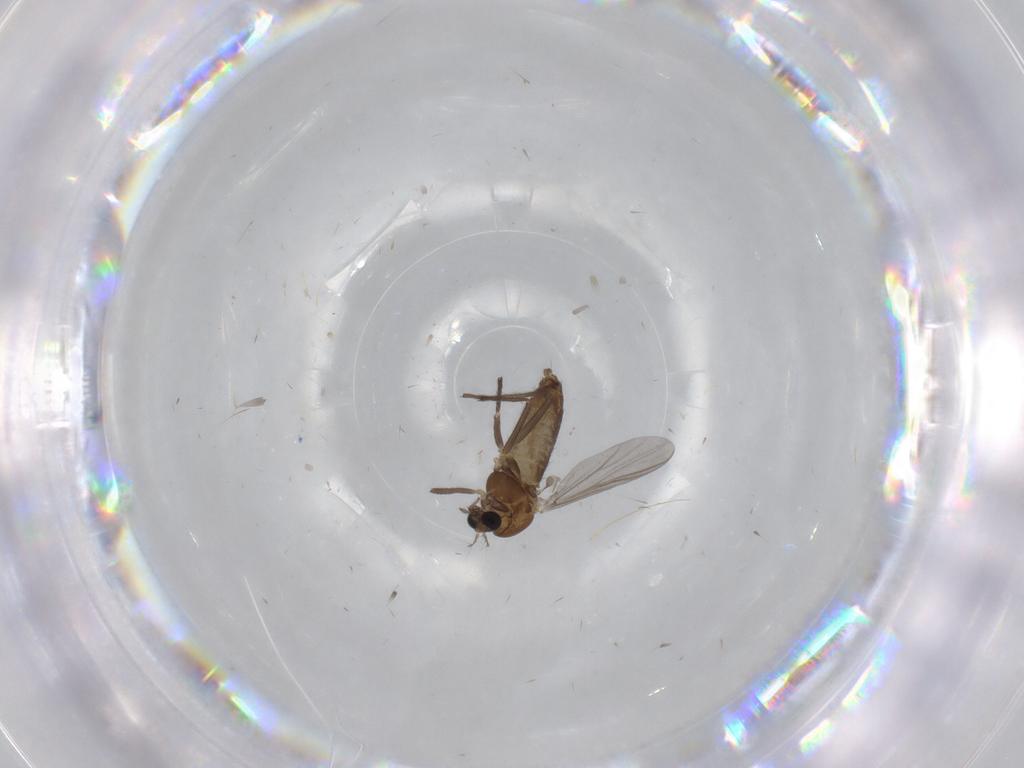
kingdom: Animalia
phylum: Arthropoda
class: Insecta
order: Diptera
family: Chironomidae
